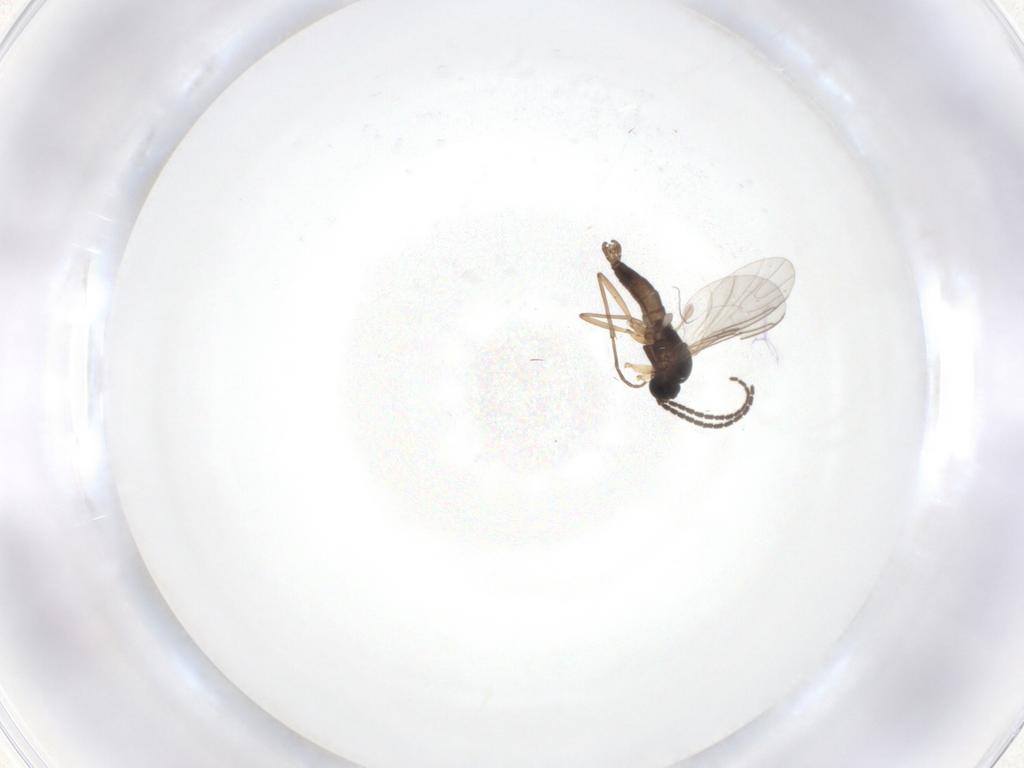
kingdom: Animalia
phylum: Arthropoda
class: Insecta
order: Diptera
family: Sciaridae
